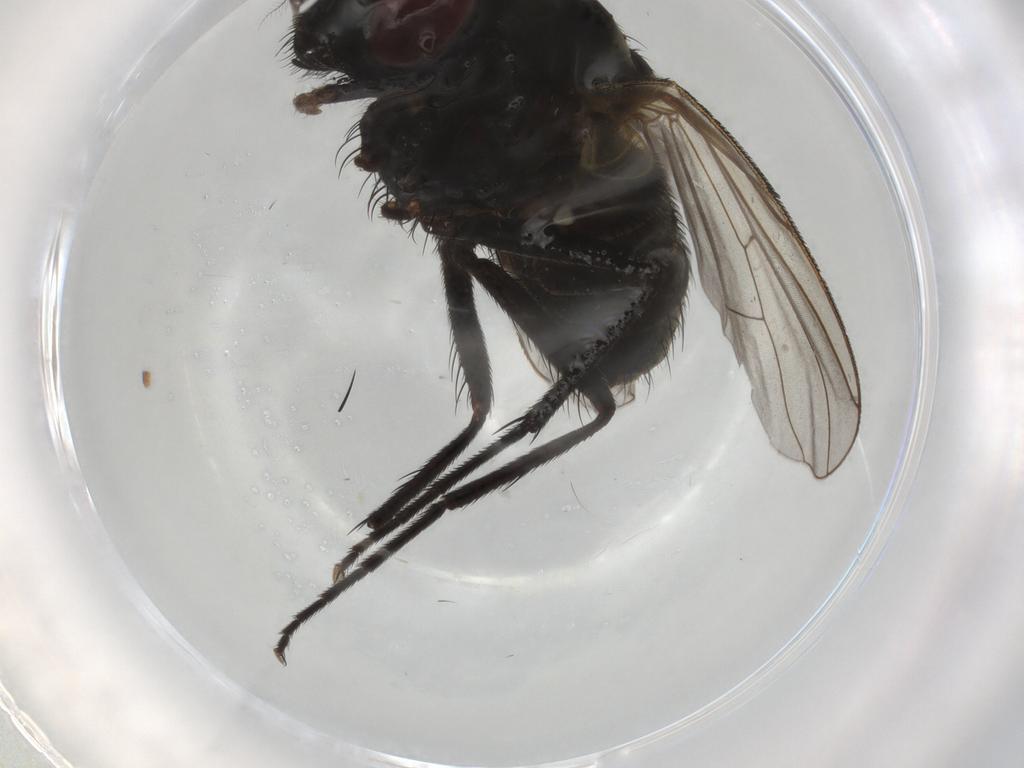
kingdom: Animalia
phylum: Arthropoda
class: Insecta
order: Diptera
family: Muscidae
